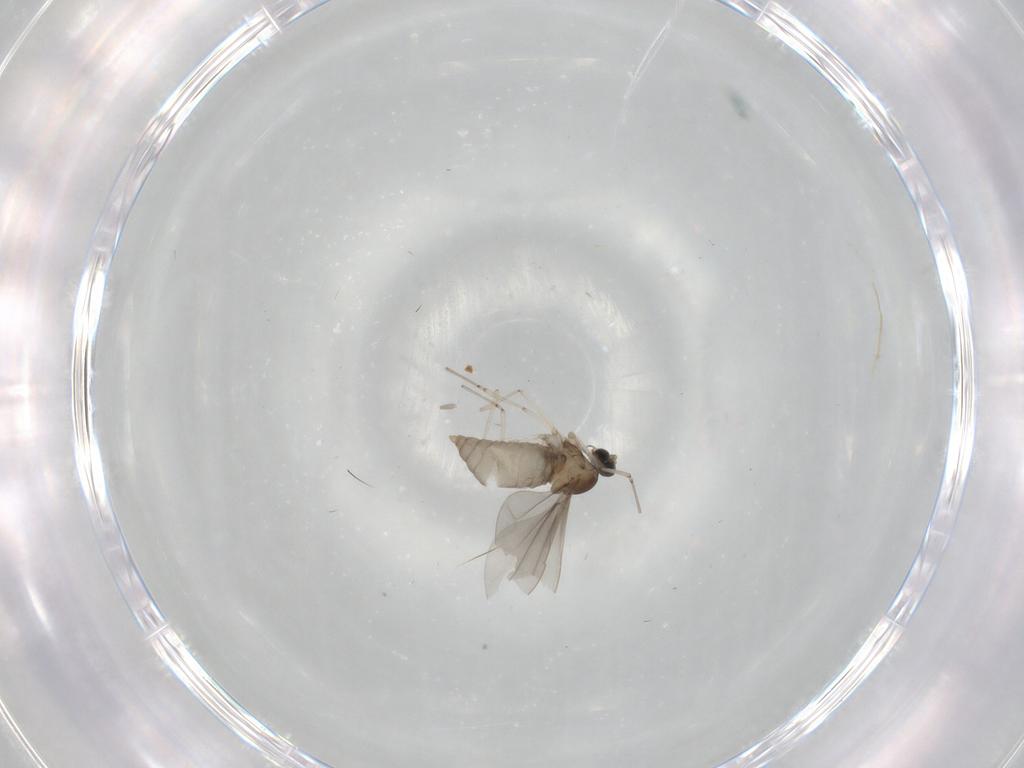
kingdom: Animalia
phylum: Arthropoda
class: Insecta
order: Diptera
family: Cecidomyiidae
